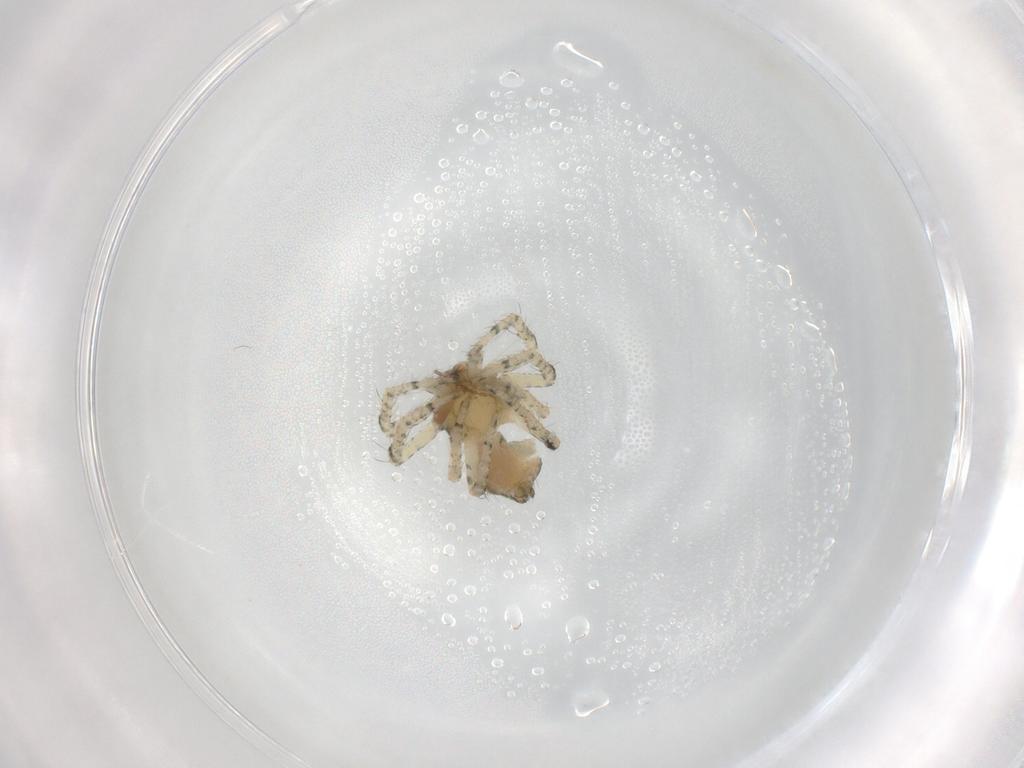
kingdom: Animalia
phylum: Arthropoda
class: Arachnida
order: Araneae
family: Thomisidae
